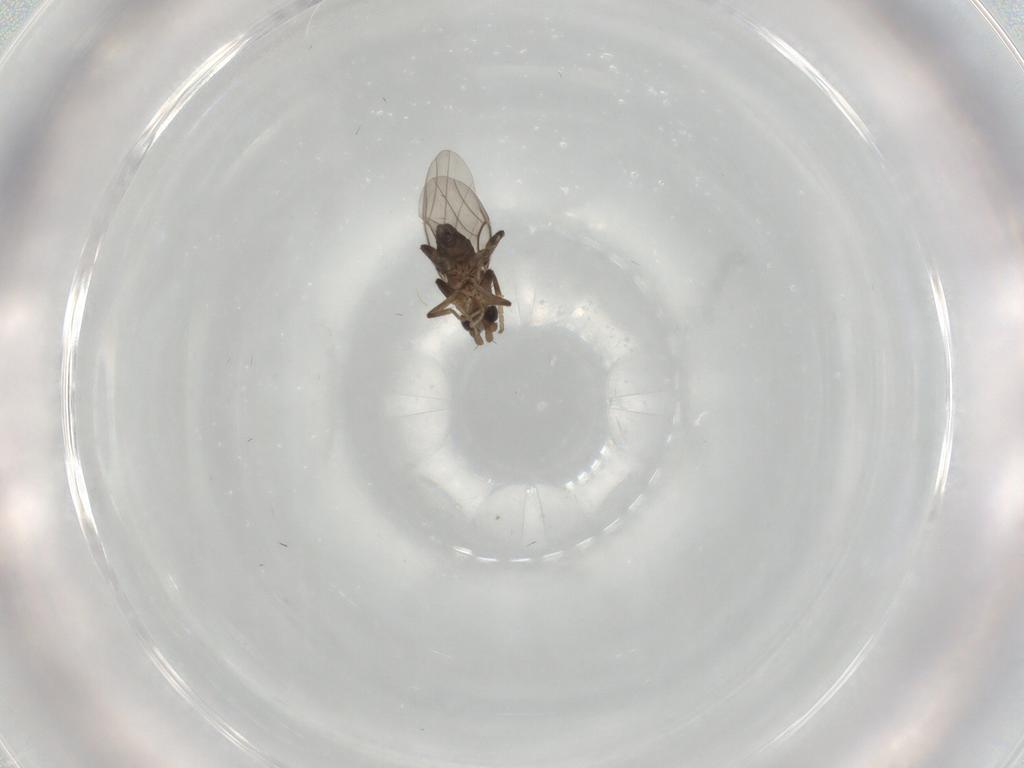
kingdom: Animalia
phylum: Arthropoda
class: Insecta
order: Diptera
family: Phoridae
